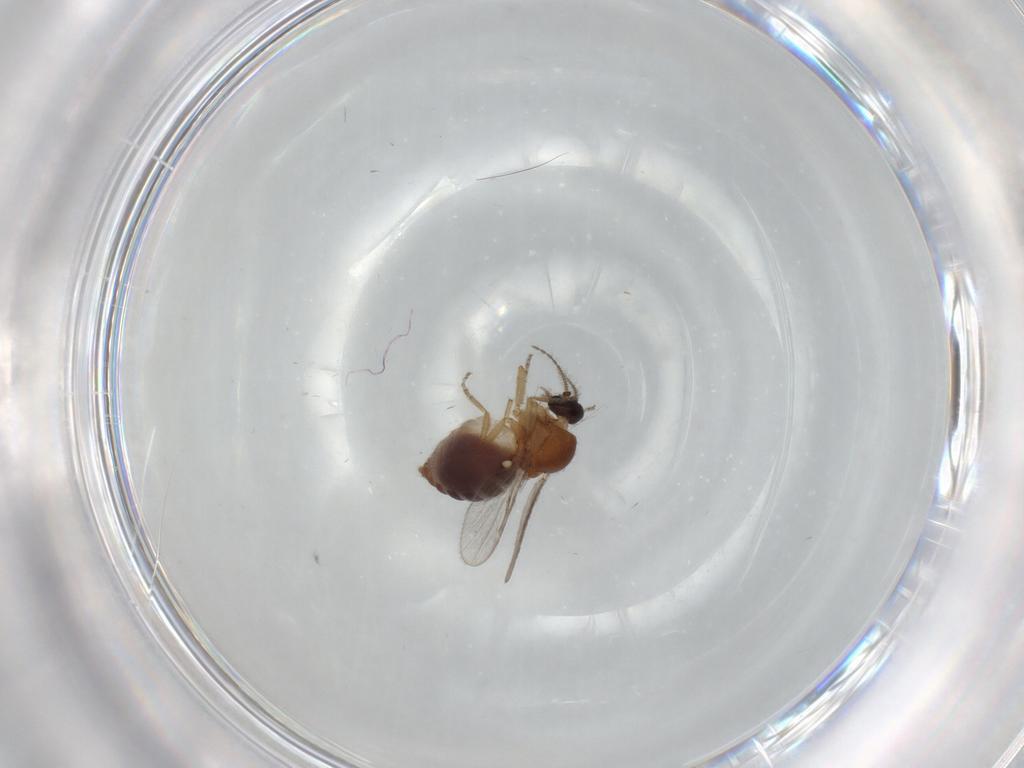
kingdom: Animalia
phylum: Arthropoda
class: Insecta
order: Diptera
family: Ceratopogonidae
